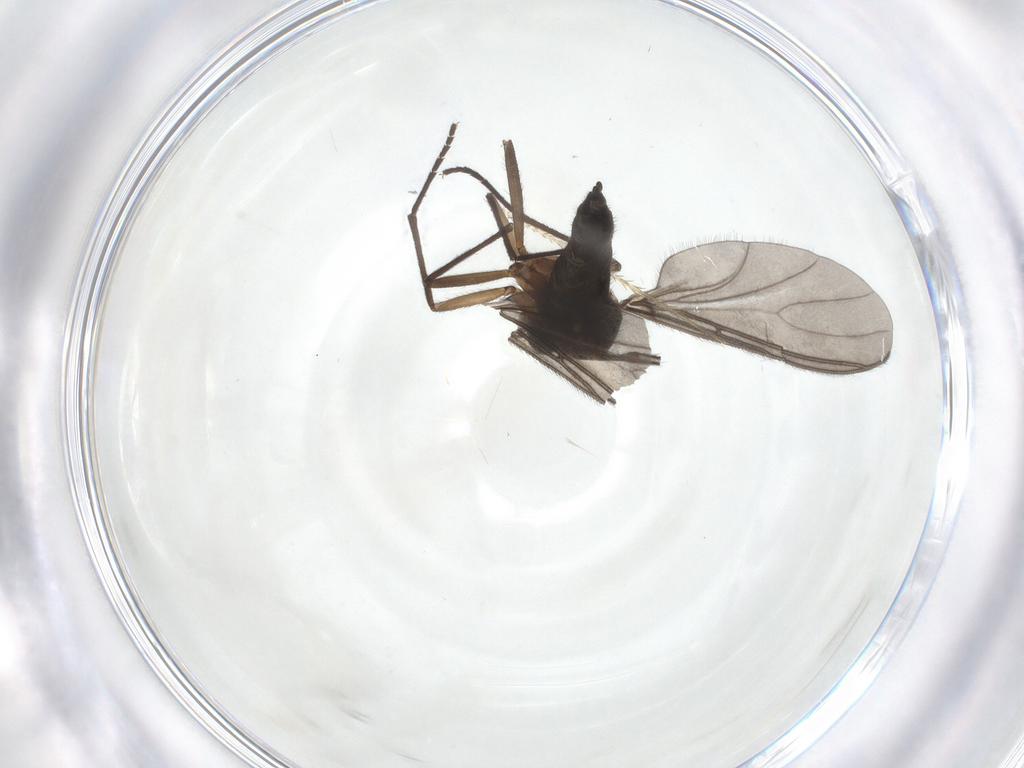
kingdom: Animalia
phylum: Arthropoda
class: Insecta
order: Diptera
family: Sciaridae
